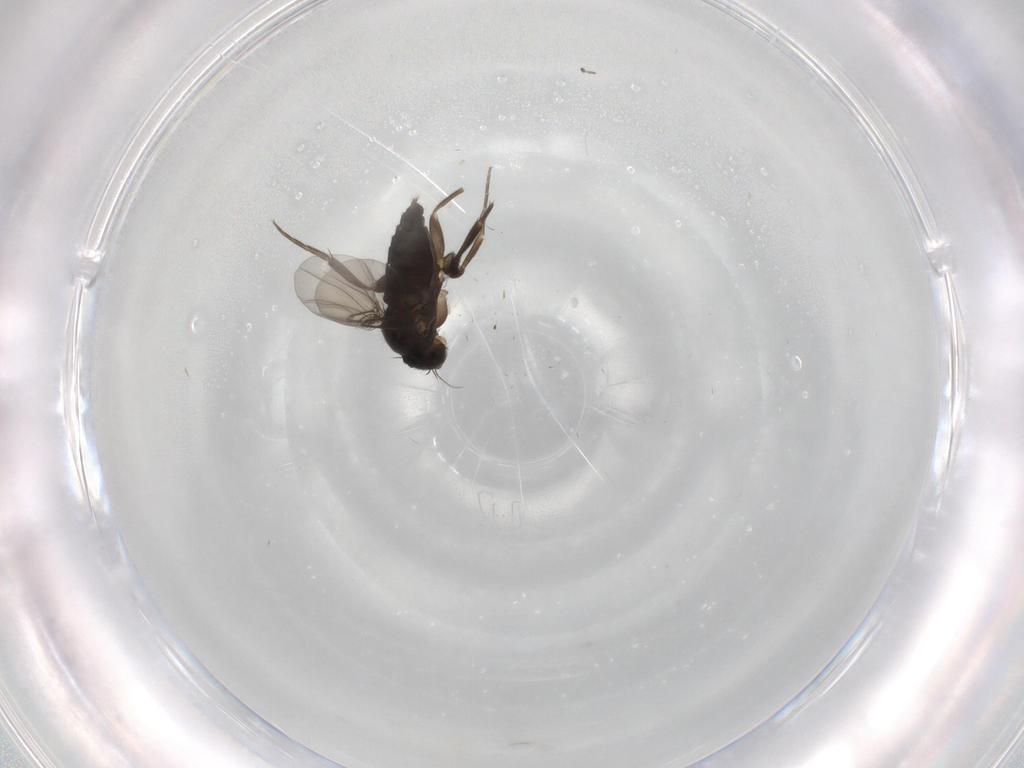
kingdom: Animalia
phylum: Arthropoda
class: Insecta
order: Diptera
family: Phoridae
